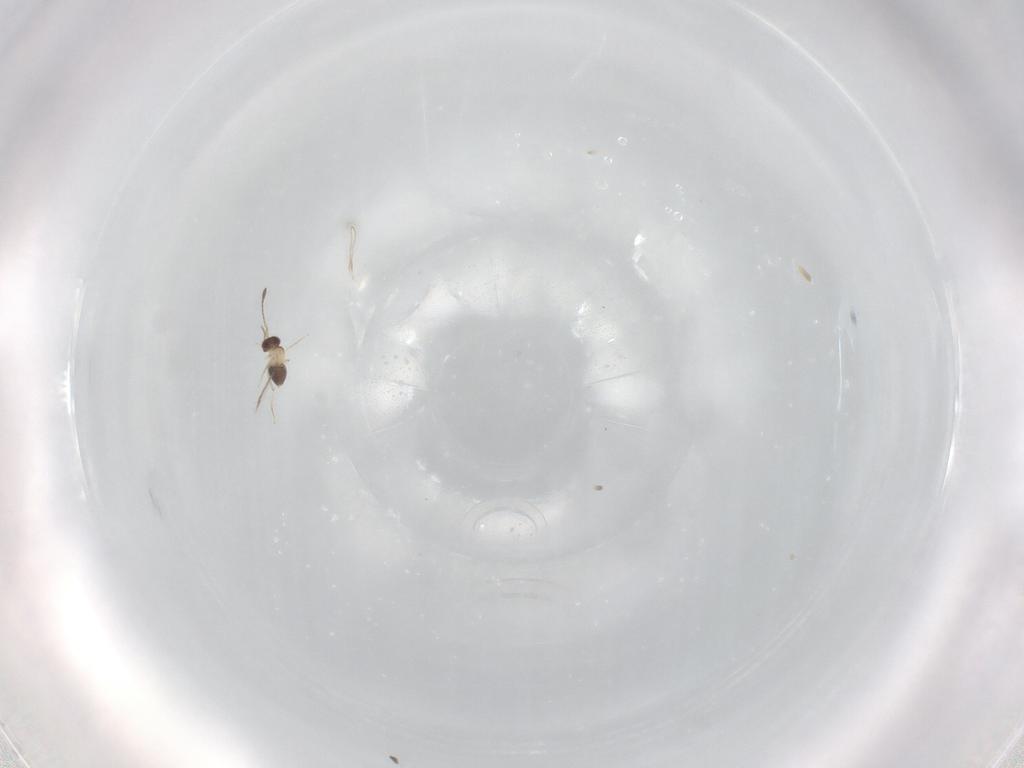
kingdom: Animalia
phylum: Arthropoda
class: Insecta
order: Hymenoptera
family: Mymaridae
